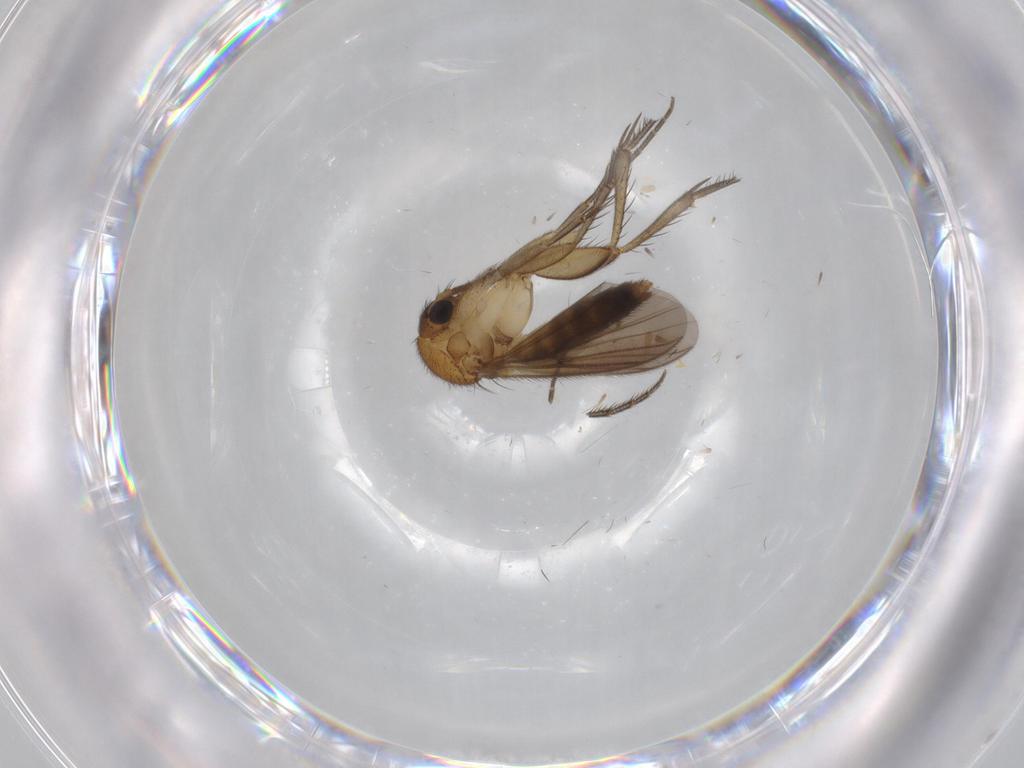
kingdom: Animalia
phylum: Arthropoda
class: Insecta
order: Diptera
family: Mycetophilidae
